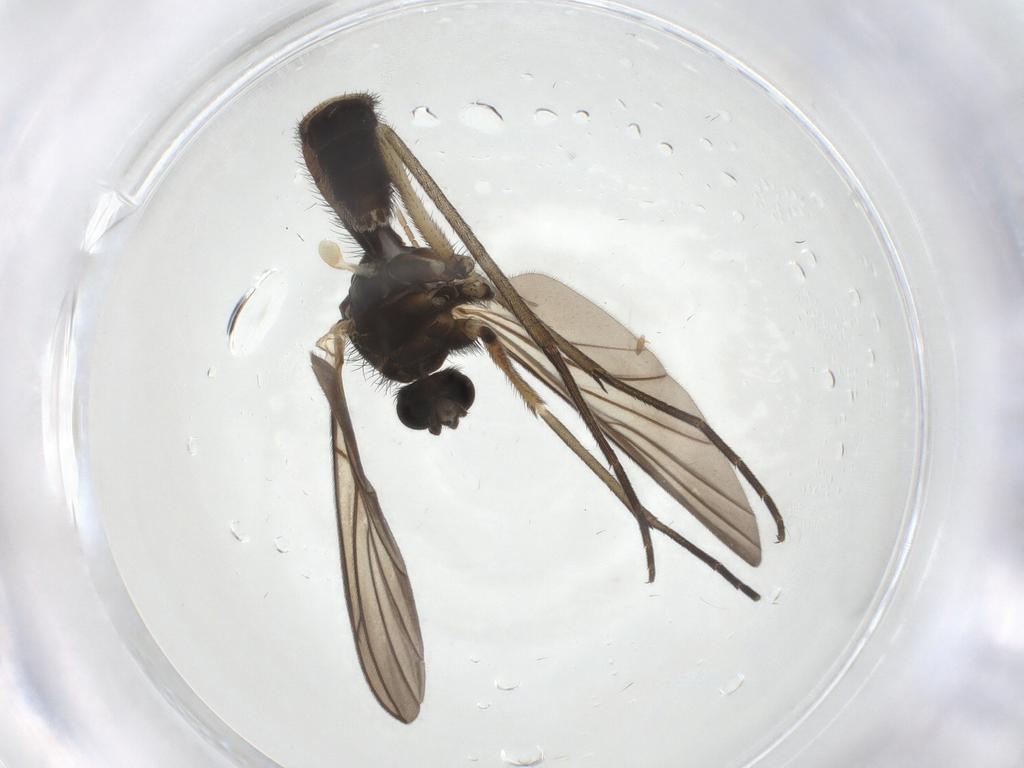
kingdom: Animalia
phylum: Arthropoda
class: Insecta
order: Diptera
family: Keroplatidae
